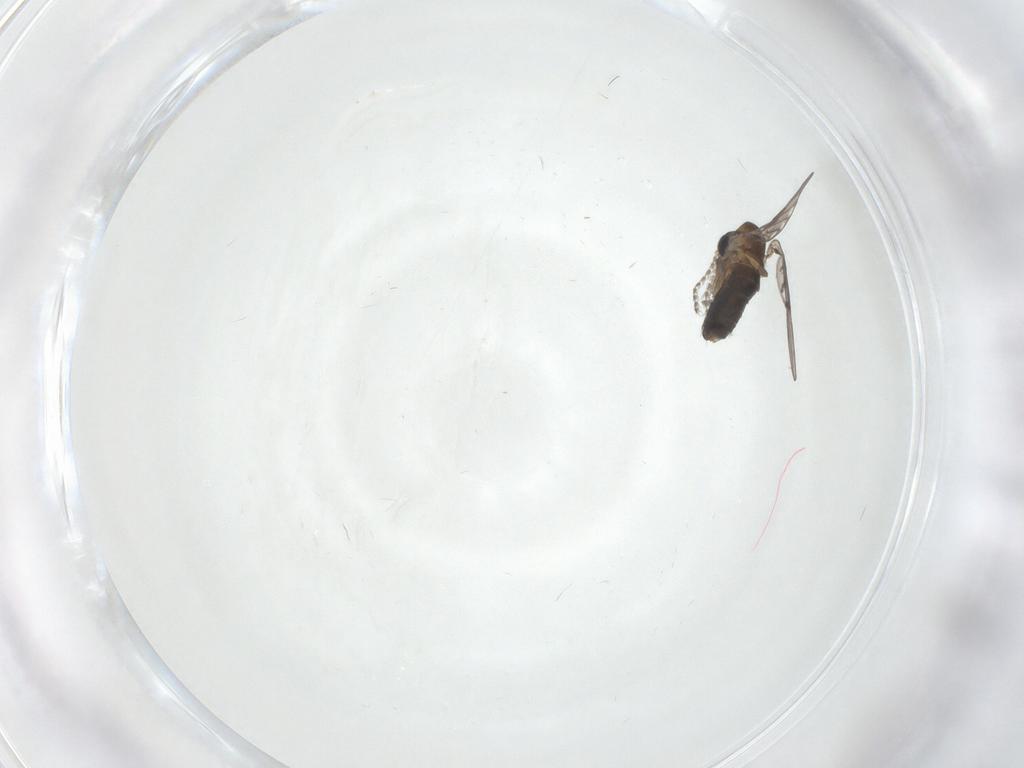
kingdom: Animalia
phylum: Arthropoda
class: Insecta
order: Diptera
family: Psychodidae
